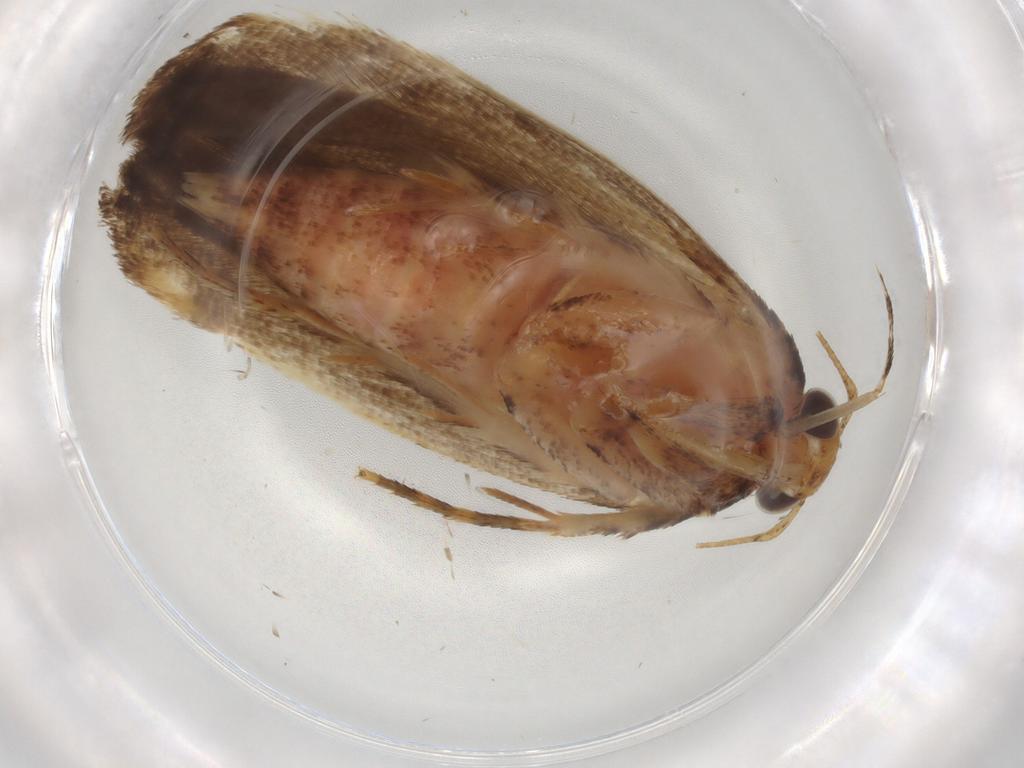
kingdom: Animalia
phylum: Arthropoda
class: Insecta
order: Lepidoptera
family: Gelechiidae
